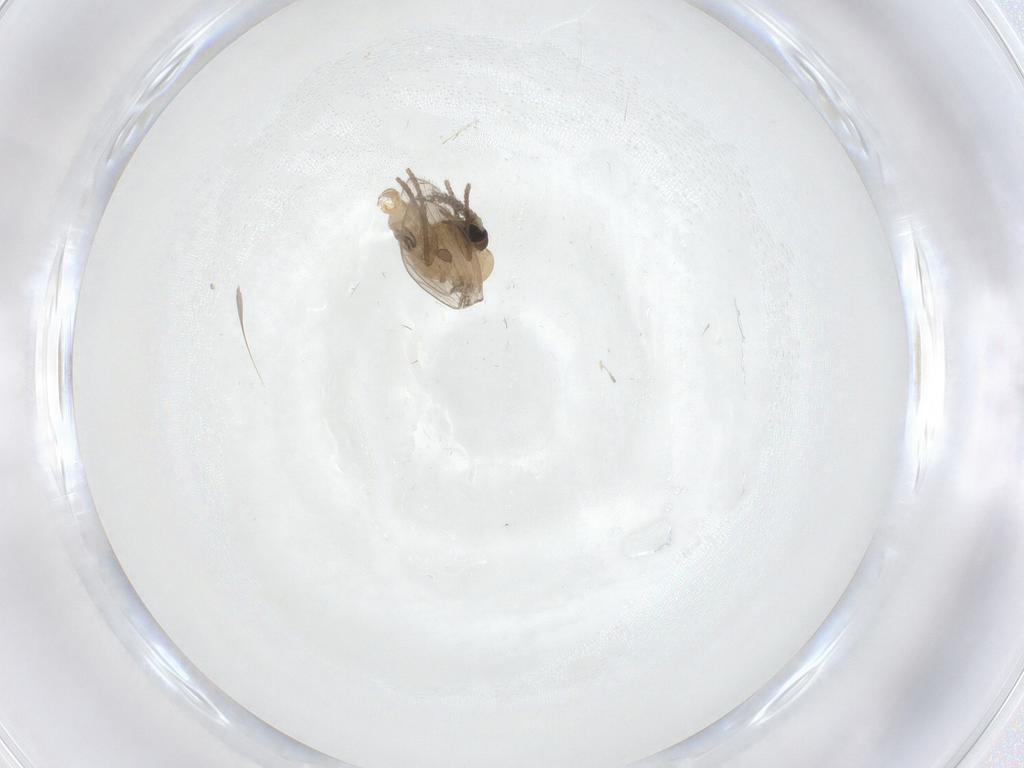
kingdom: Animalia
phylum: Arthropoda
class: Insecta
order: Diptera
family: Psychodidae
